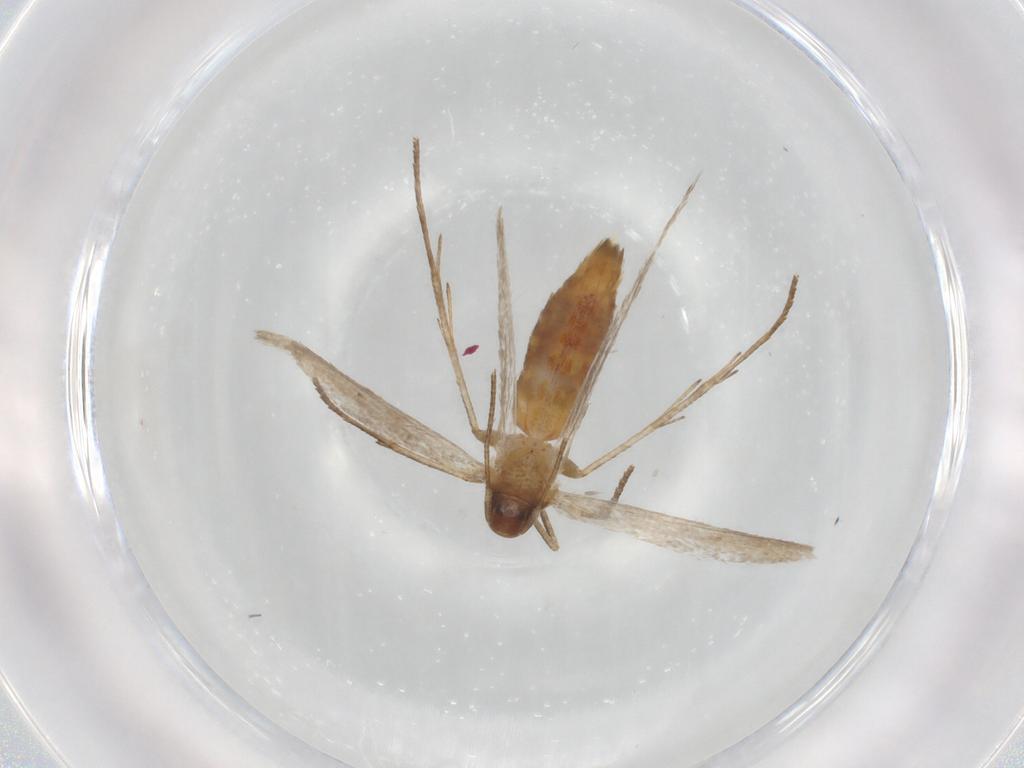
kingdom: Animalia
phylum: Arthropoda
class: Insecta
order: Lepidoptera
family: Depressariidae
